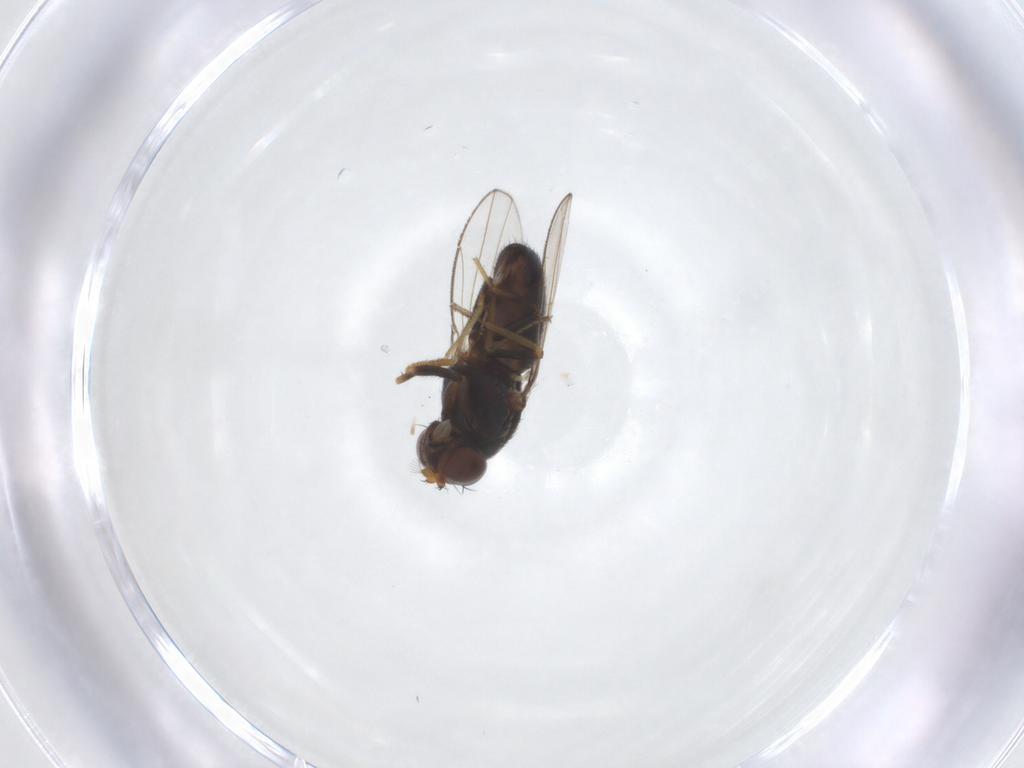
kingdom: Animalia
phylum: Arthropoda
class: Insecta
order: Diptera
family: Ephydridae
